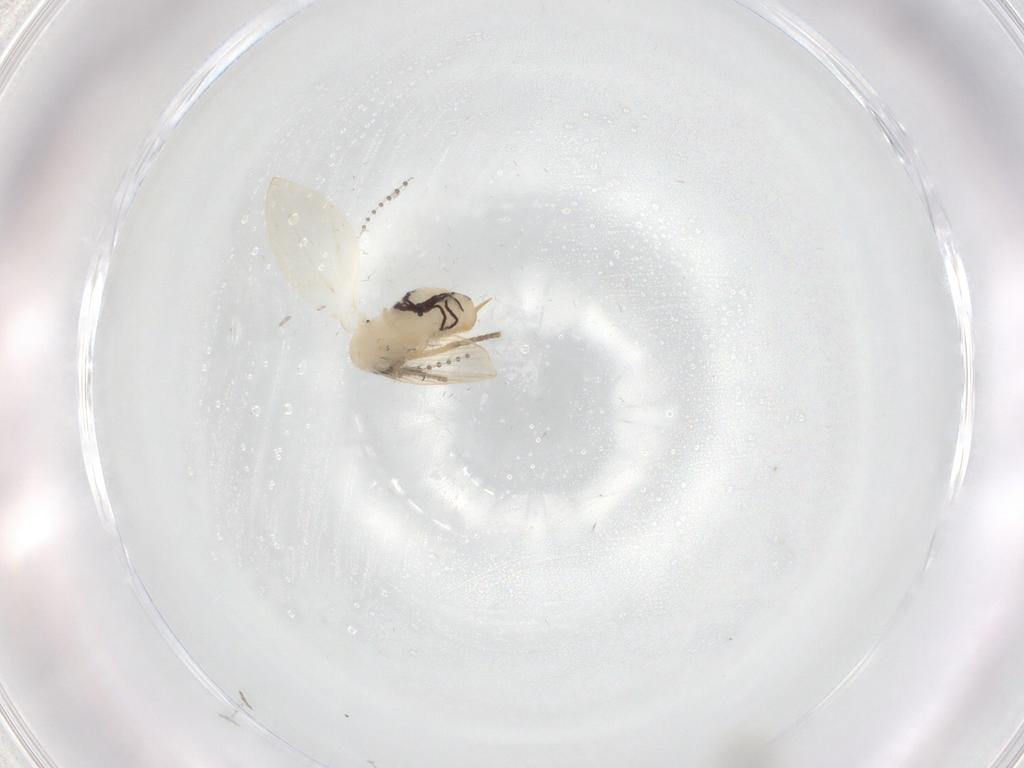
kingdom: Animalia
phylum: Arthropoda
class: Insecta
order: Diptera
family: Psychodidae
